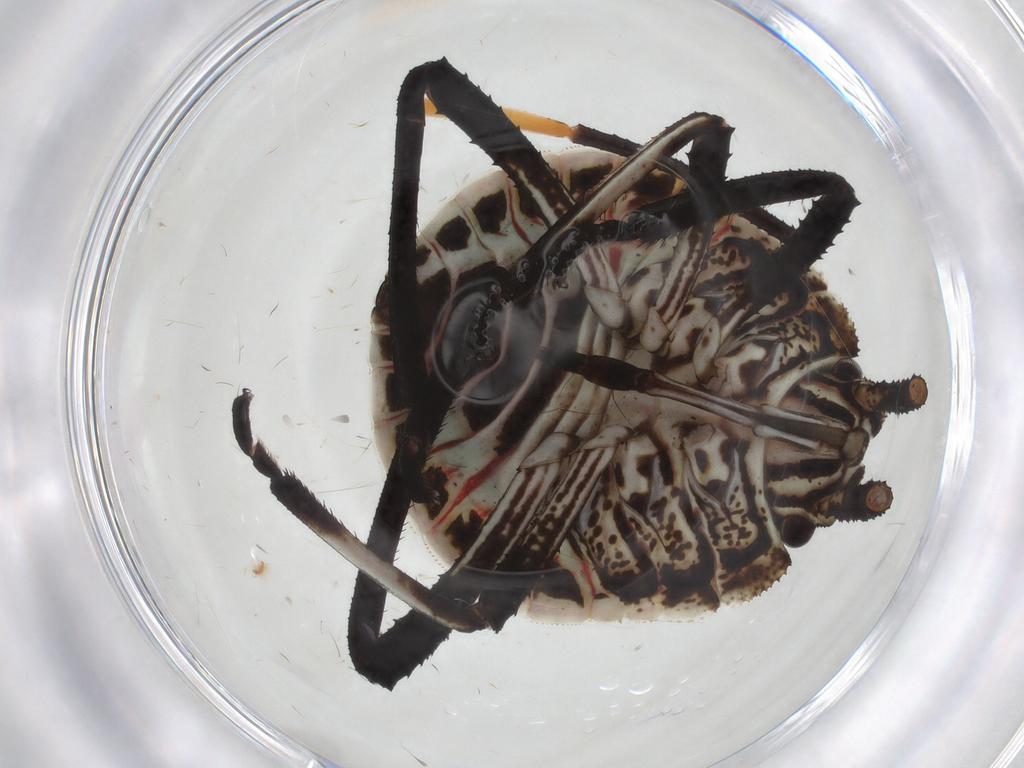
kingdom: Animalia
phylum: Arthropoda
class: Insecta
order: Hemiptera
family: Pentatomidae
